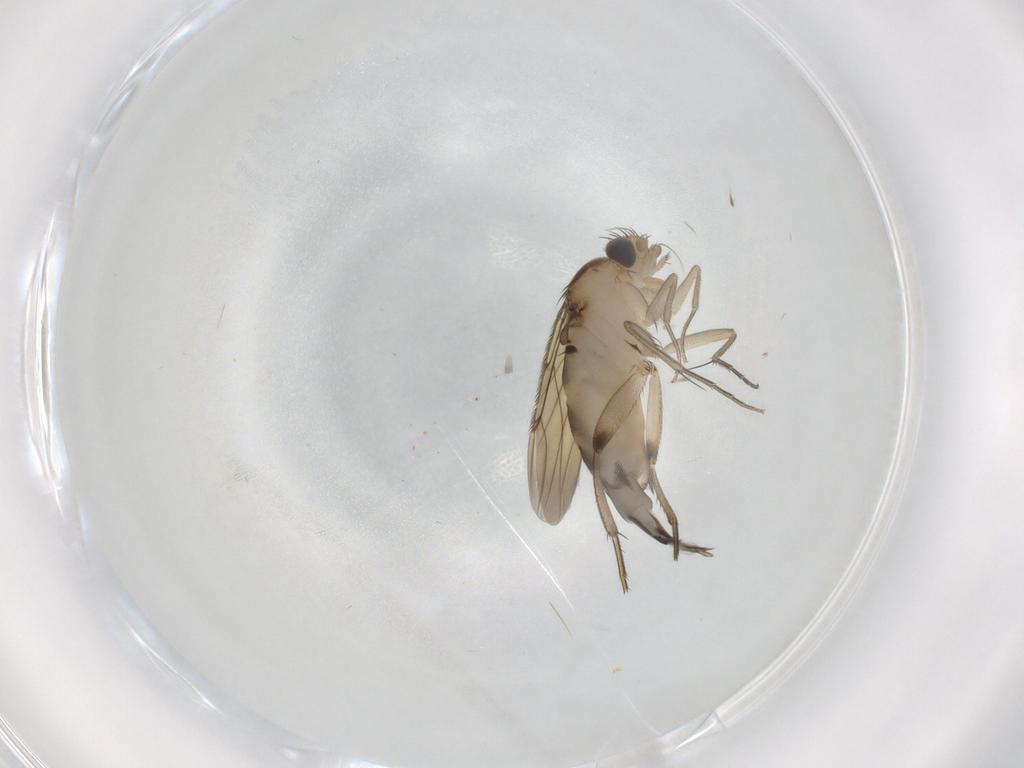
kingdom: Animalia
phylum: Arthropoda
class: Insecta
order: Diptera
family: Phoridae
